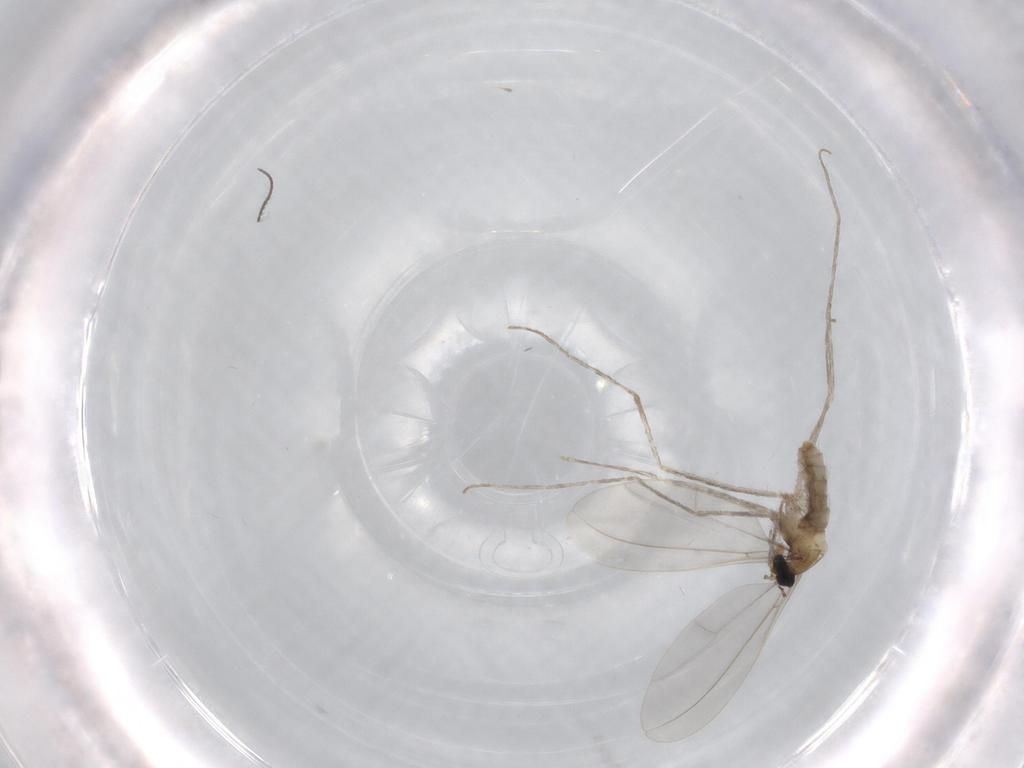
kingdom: Animalia
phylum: Arthropoda
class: Insecta
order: Diptera
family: Cecidomyiidae
